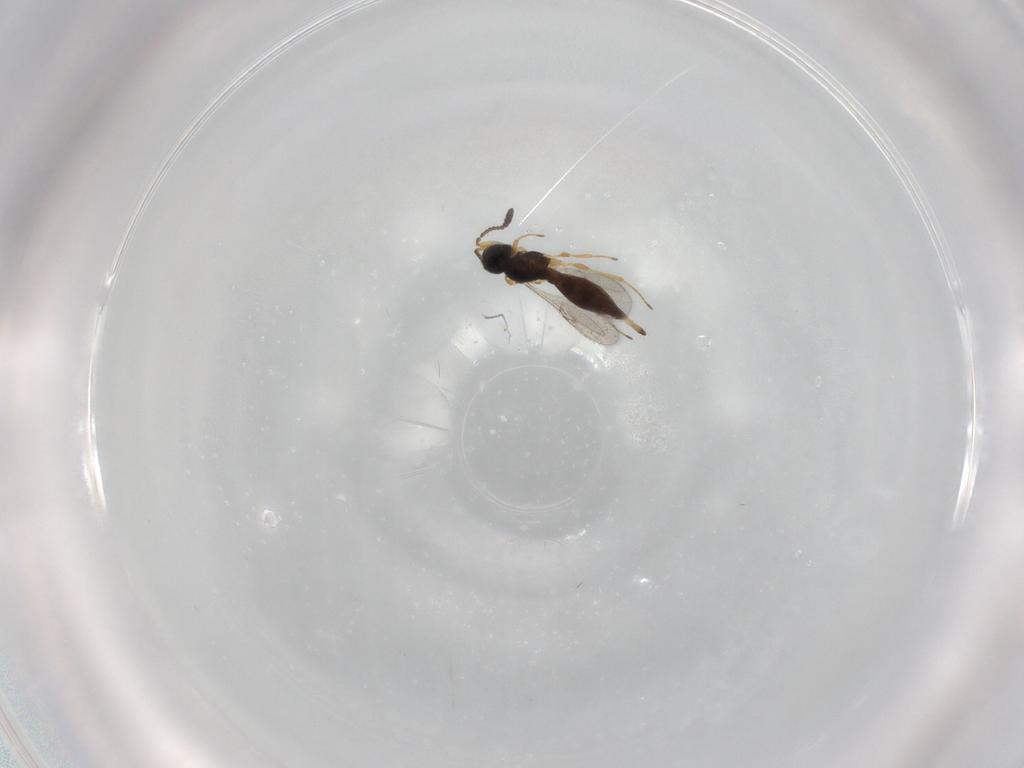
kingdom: Animalia
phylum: Arthropoda
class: Insecta
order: Hymenoptera
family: Scelionidae
